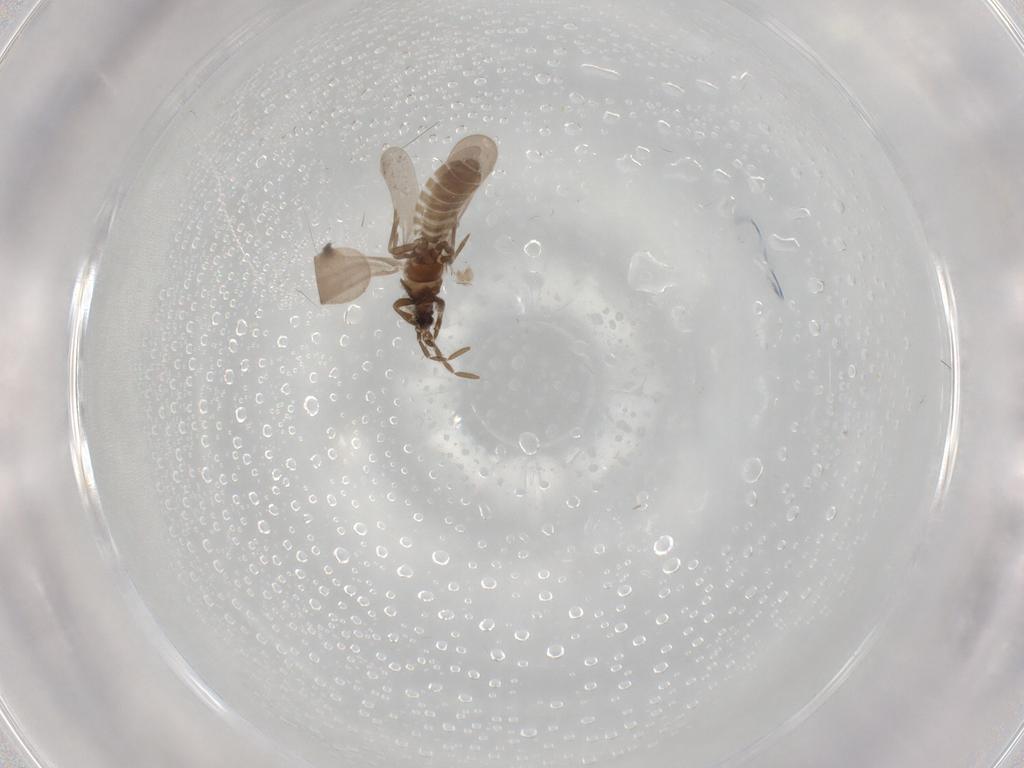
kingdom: Animalia
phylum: Arthropoda
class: Insecta
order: Hemiptera
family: Enicocephalidae
